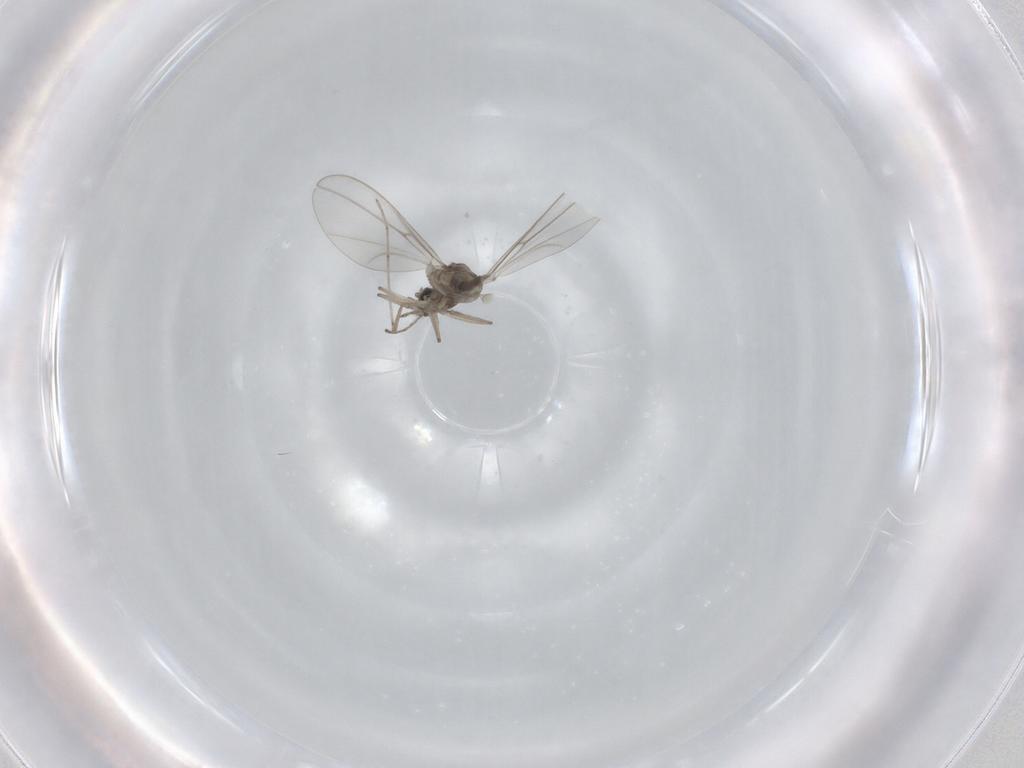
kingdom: Animalia
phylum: Arthropoda
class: Insecta
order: Diptera
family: Cecidomyiidae
